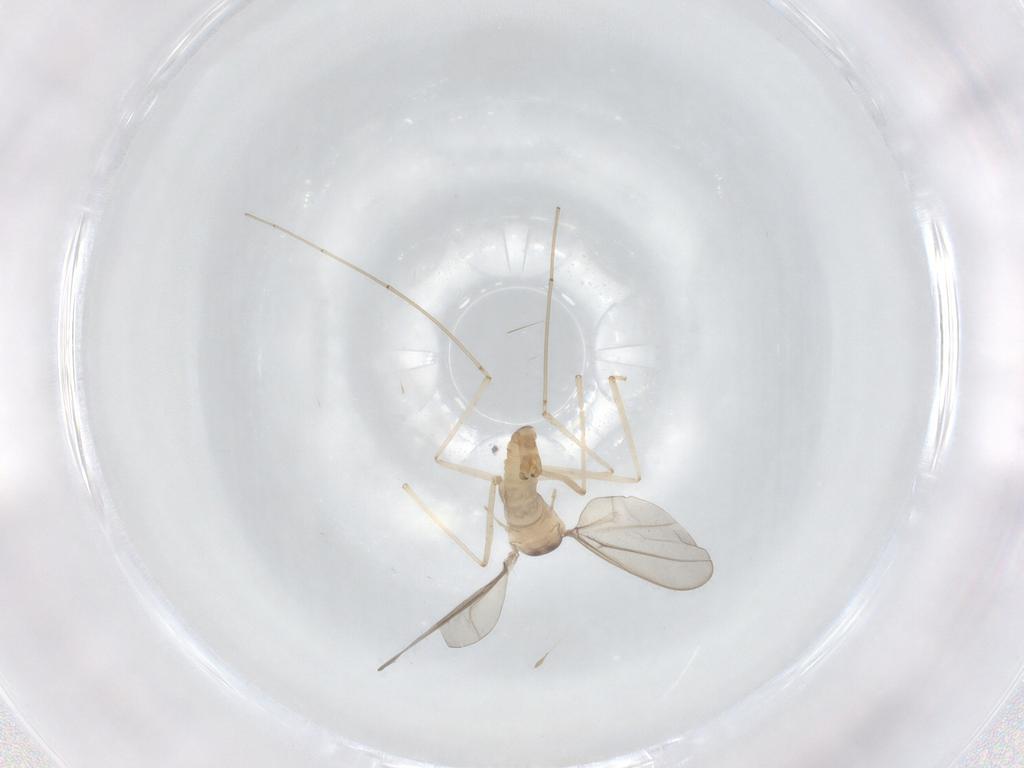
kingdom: Animalia
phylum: Arthropoda
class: Insecta
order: Diptera
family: Cecidomyiidae
